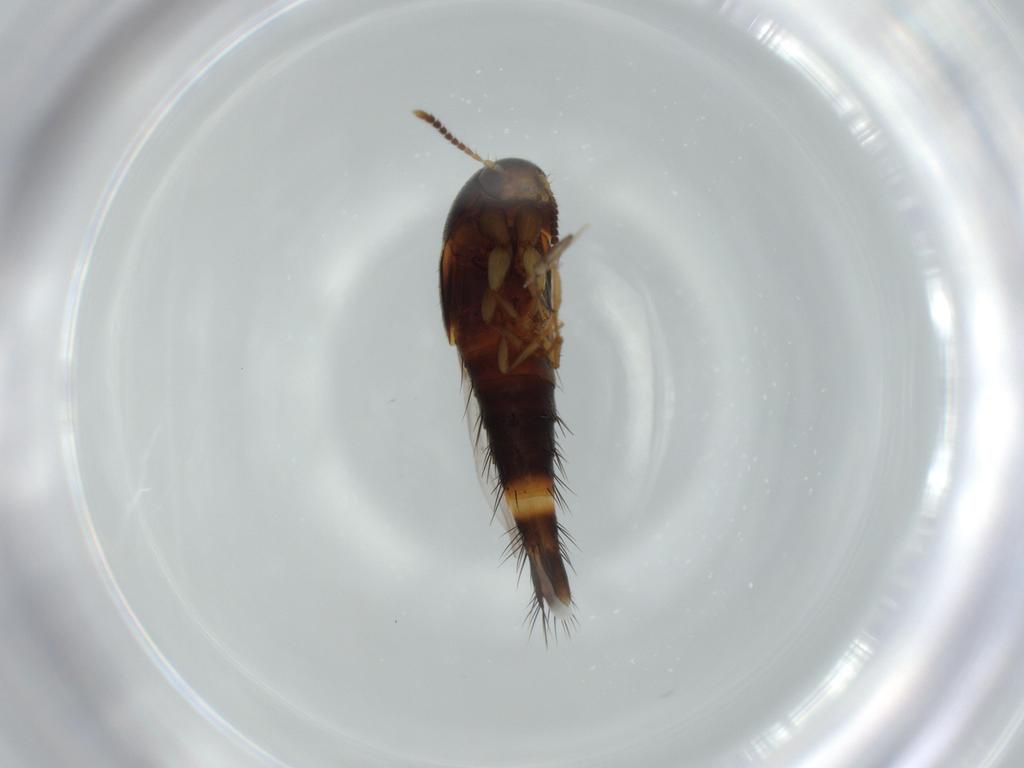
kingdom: Animalia
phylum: Arthropoda
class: Insecta
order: Coleoptera
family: Staphylinidae
